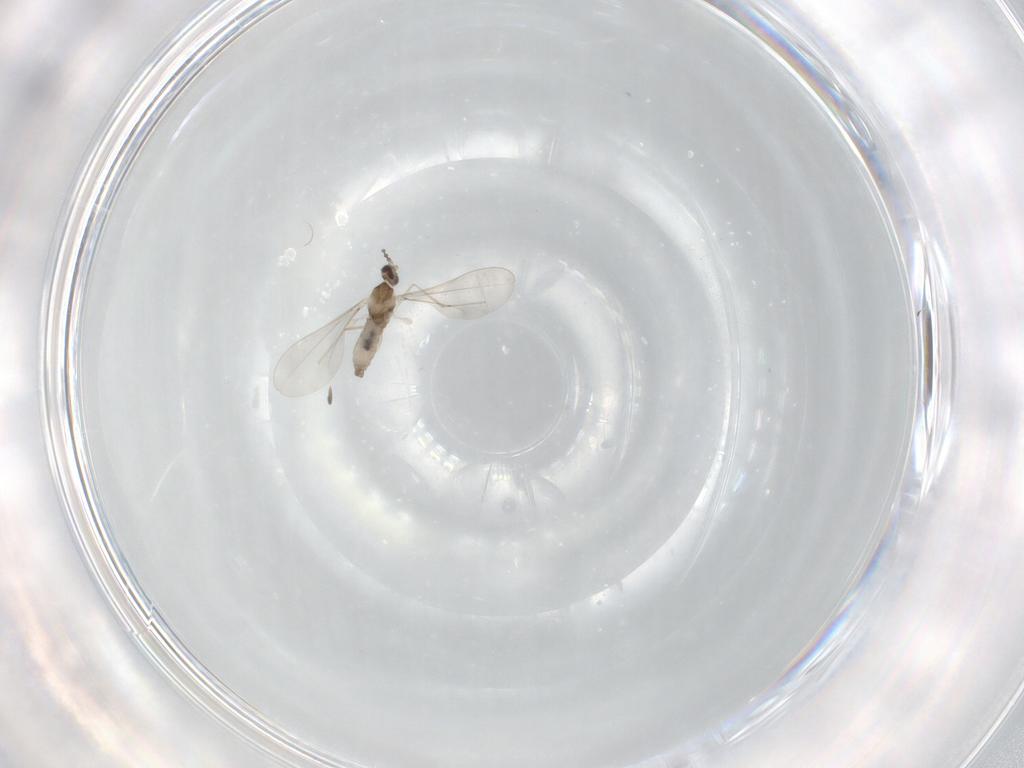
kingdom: Animalia
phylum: Arthropoda
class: Insecta
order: Diptera
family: Cecidomyiidae
